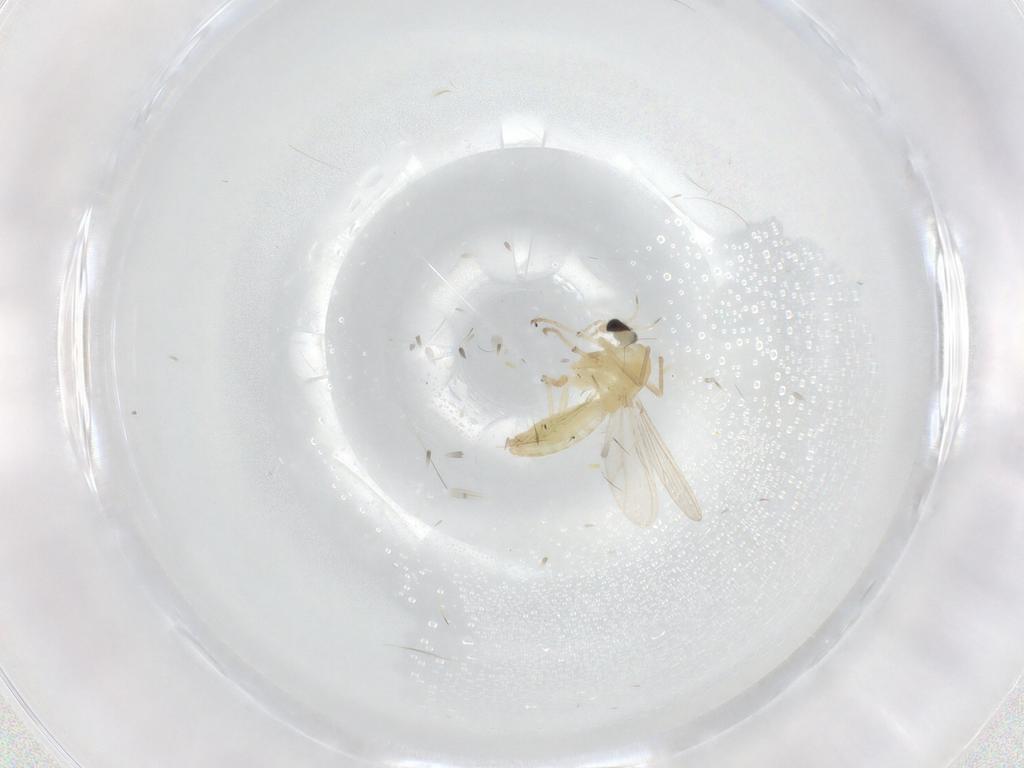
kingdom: Animalia
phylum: Arthropoda
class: Insecta
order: Diptera
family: Chironomidae
